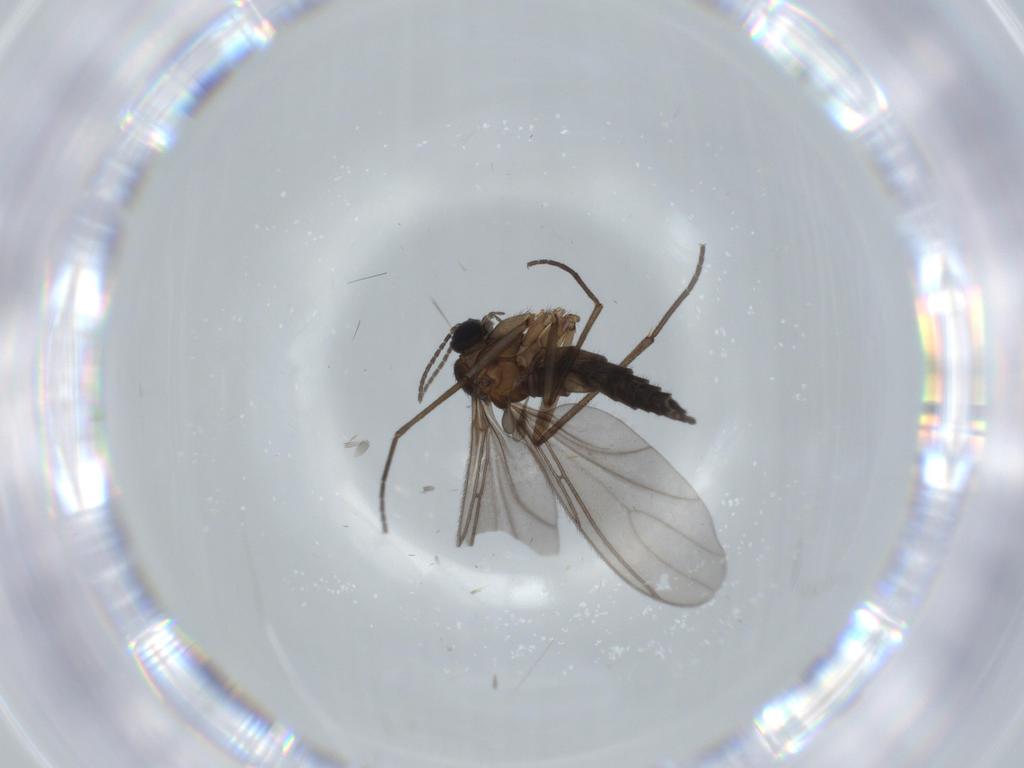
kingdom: Animalia
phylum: Arthropoda
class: Insecta
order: Diptera
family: Sciaridae
